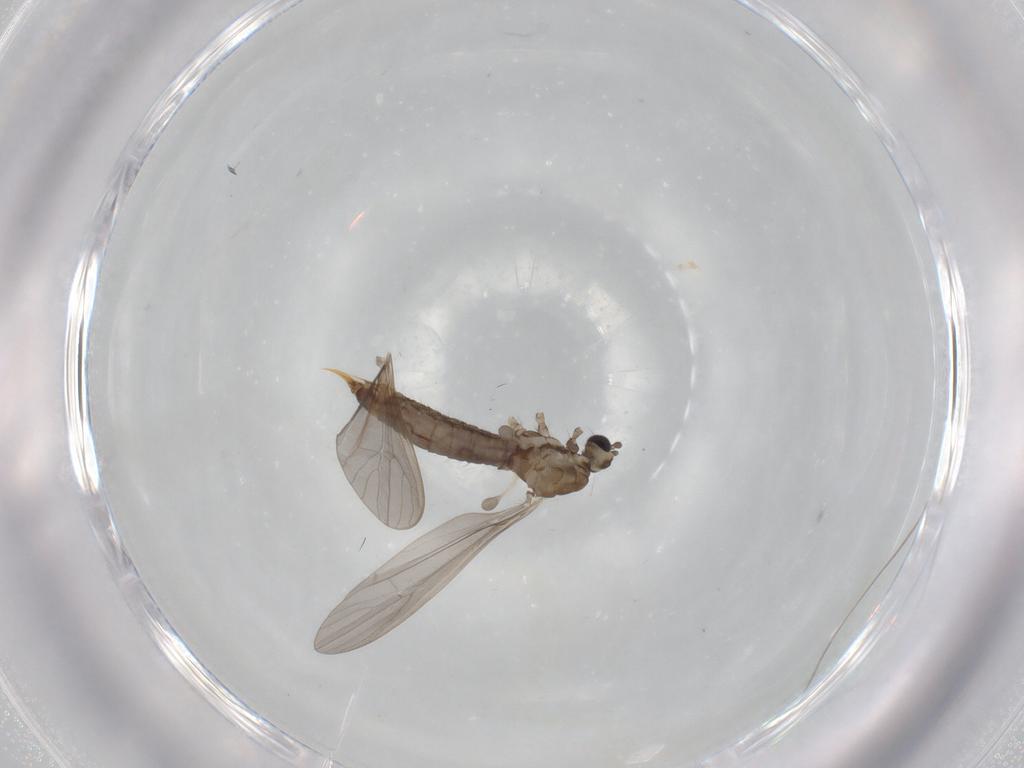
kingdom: Animalia
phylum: Arthropoda
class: Insecta
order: Diptera
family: Limoniidae
